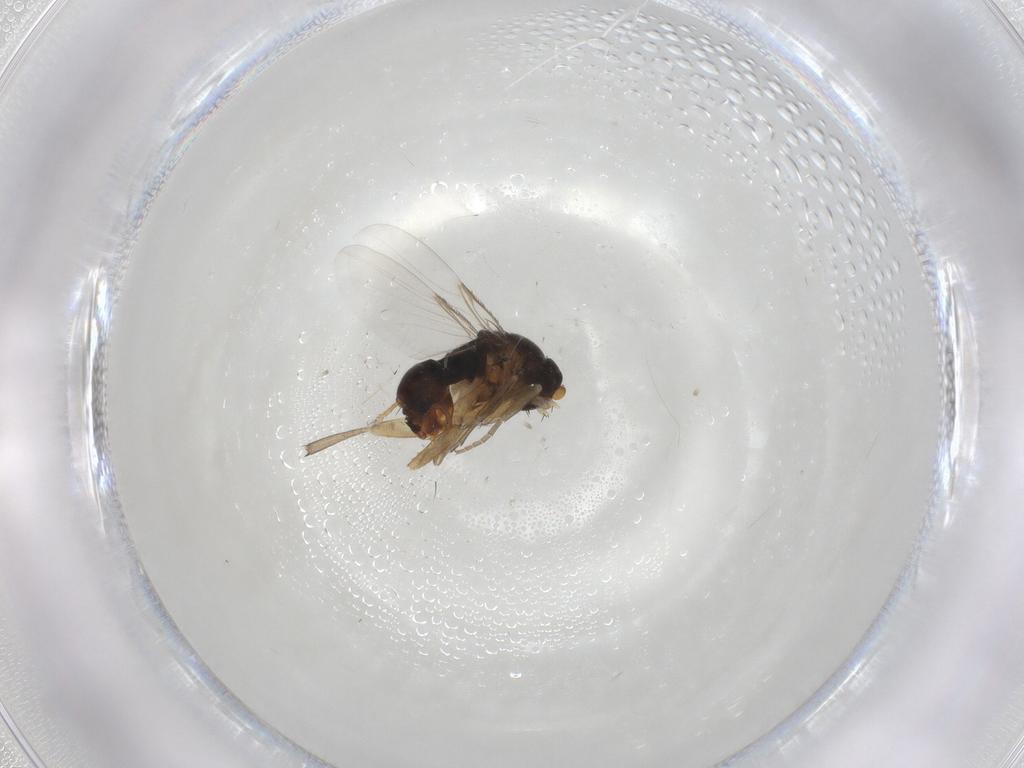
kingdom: Animalia
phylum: Arthropoda
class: Insecta
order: Diptera
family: Phoridae
